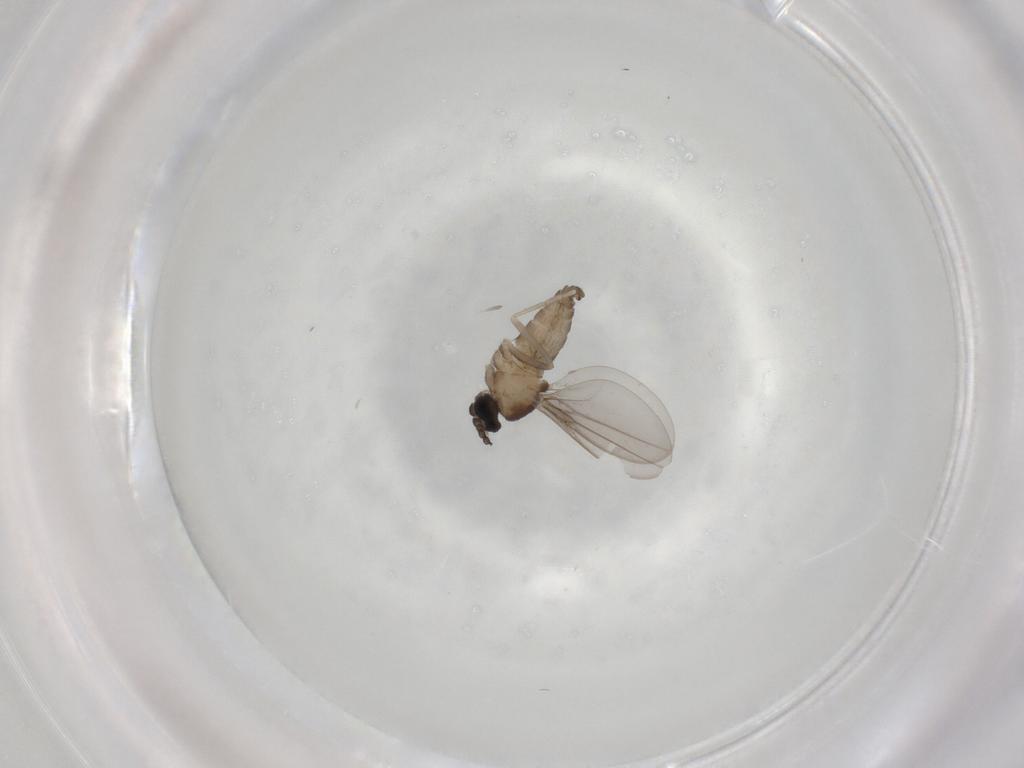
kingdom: Animalia
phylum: Arthropoda
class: Insecta
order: Diptera
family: Cecidomyiidae
